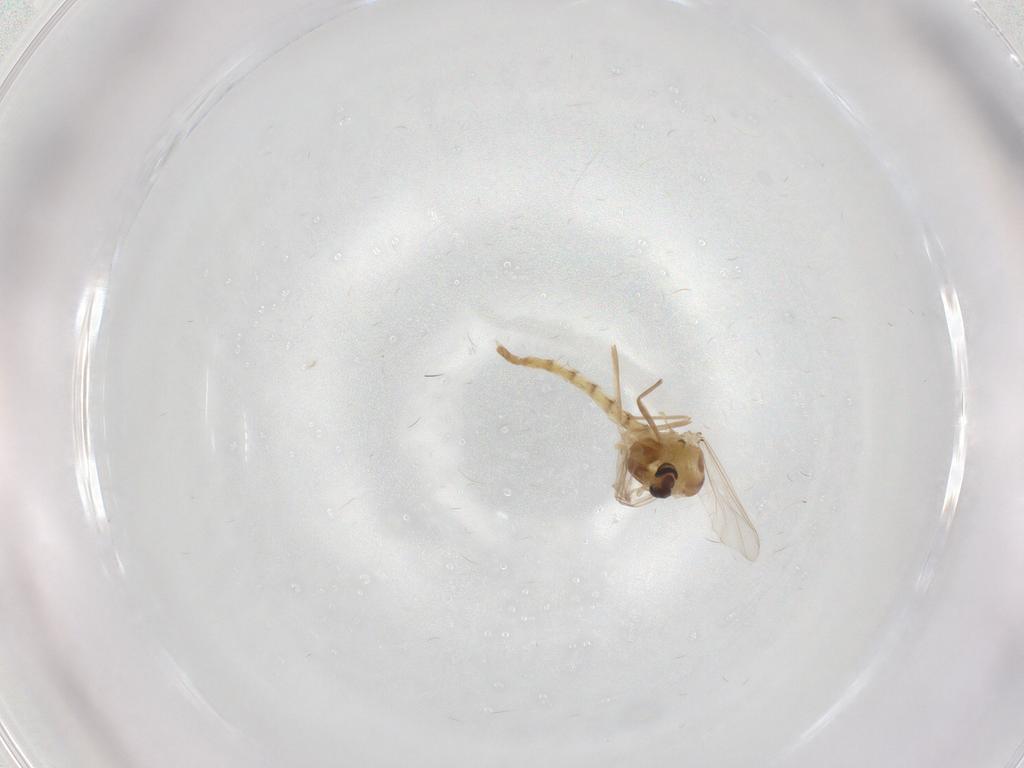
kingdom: Animalia
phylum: Arthropoda
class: Insecta
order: Diptera
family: Chironomidae
